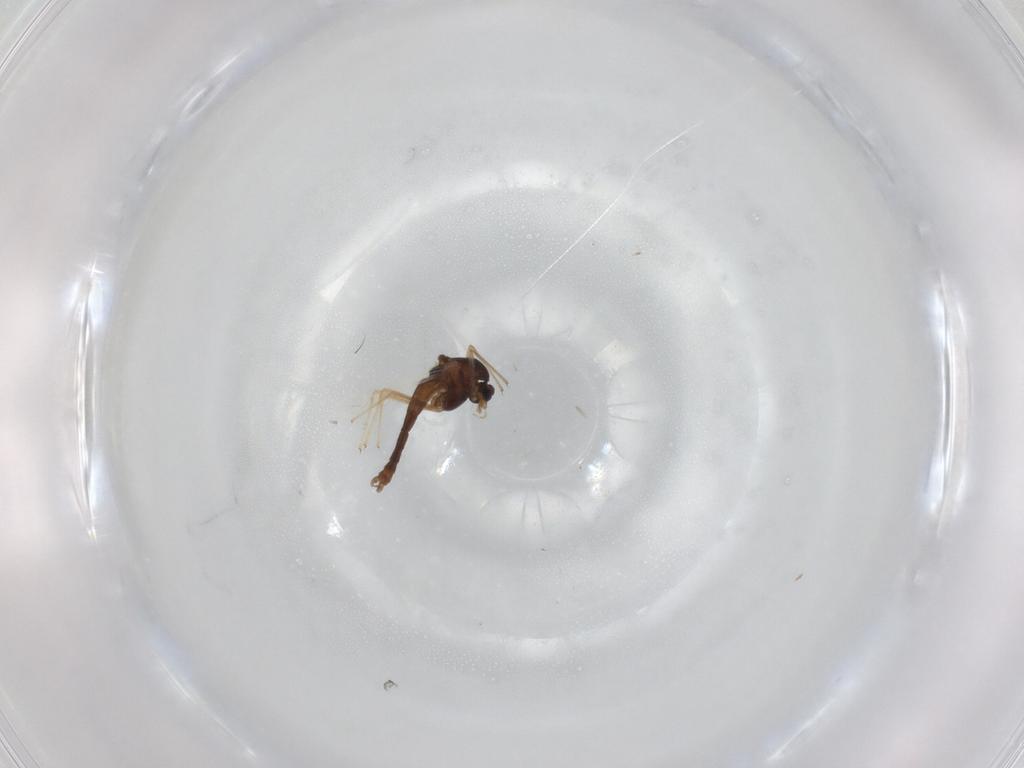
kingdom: Animalia
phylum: Arthropoda
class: Insecta
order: Diptera
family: Chironomidae
